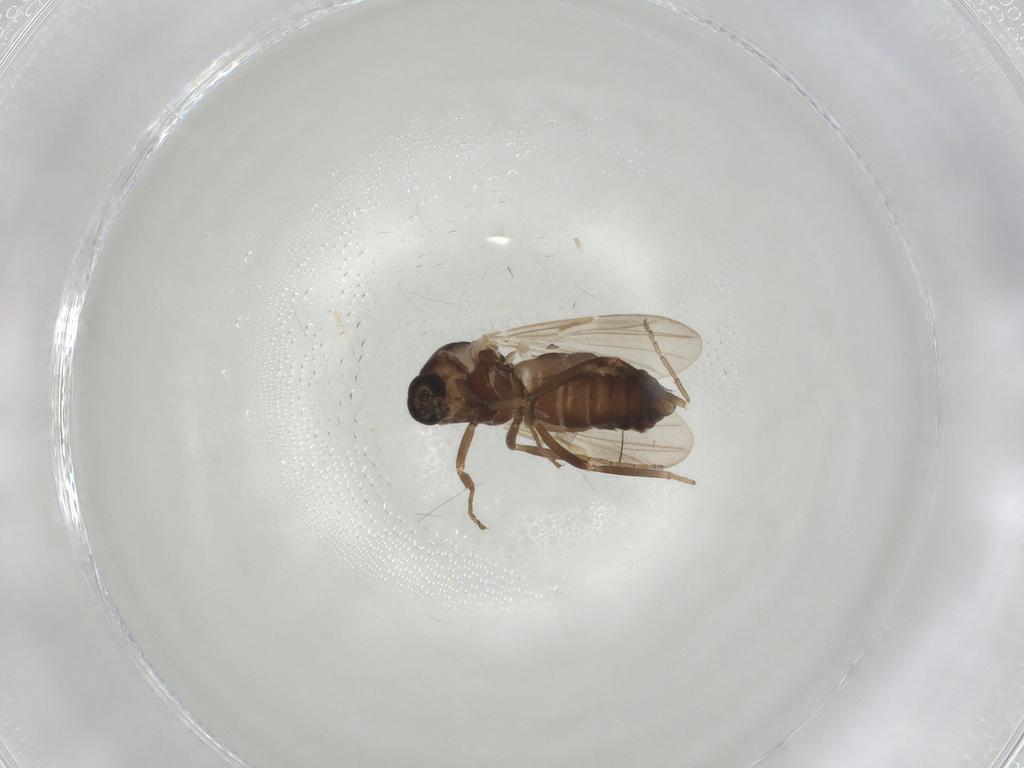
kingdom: Animalia
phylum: Arthropoda
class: Insecta
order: Diptera
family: Ceratopogonidae
